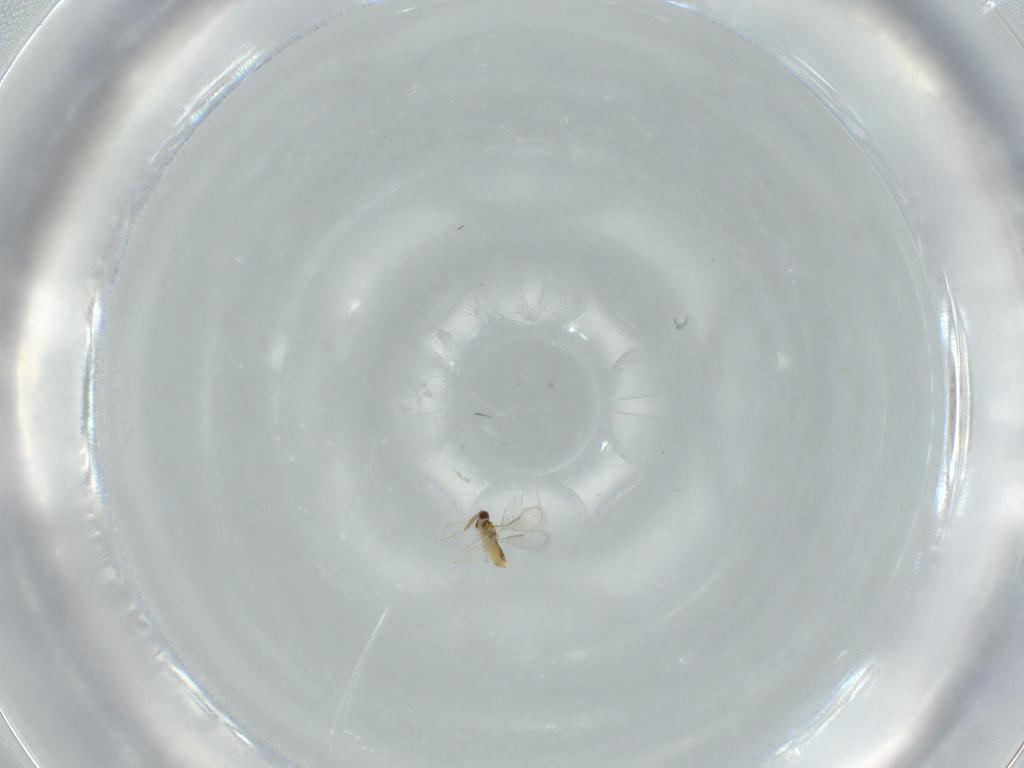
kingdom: Animalia
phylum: Arthropoda
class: Insecta
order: Hymenoptera
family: Aphelinidae
